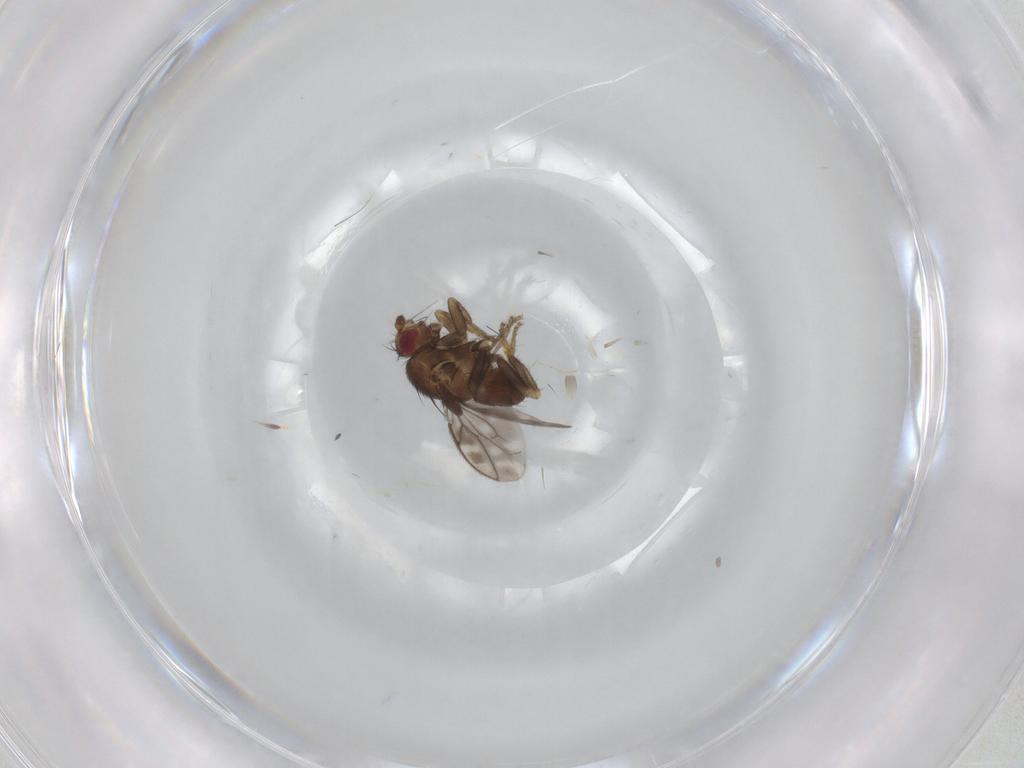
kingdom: Animalia
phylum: Arthropoda
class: Insecta
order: Diptera
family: Sphaeroceridae
